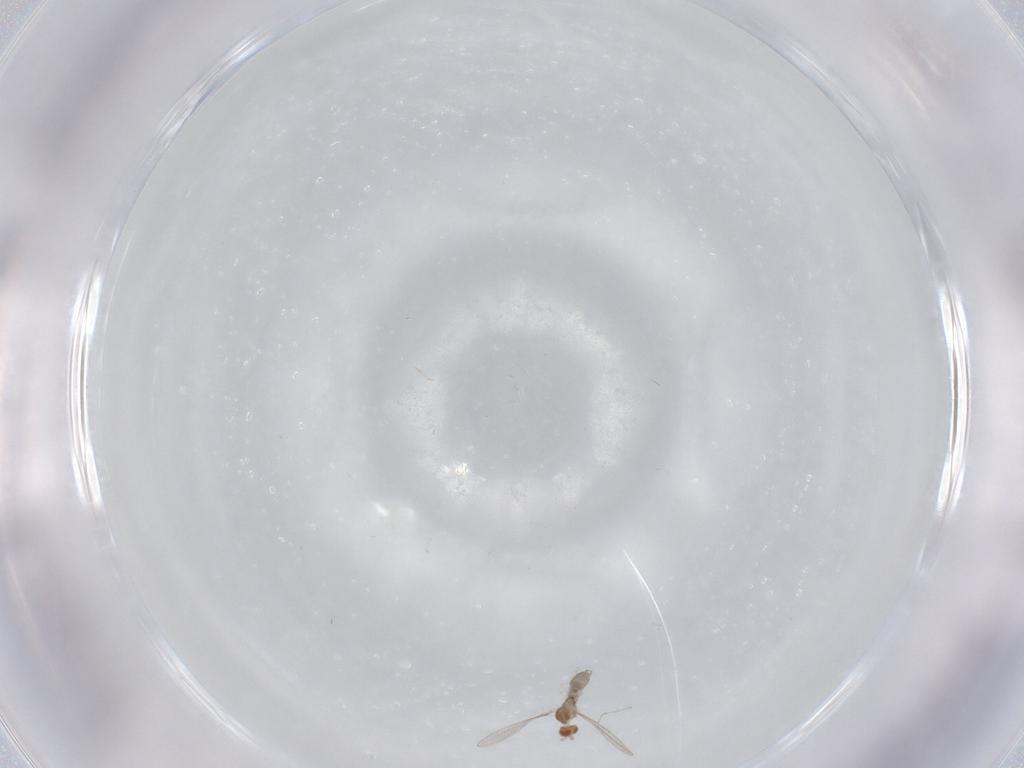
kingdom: Animalia
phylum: Arthropoda
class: Insecta
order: Diptera
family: Cecidomyiidae
